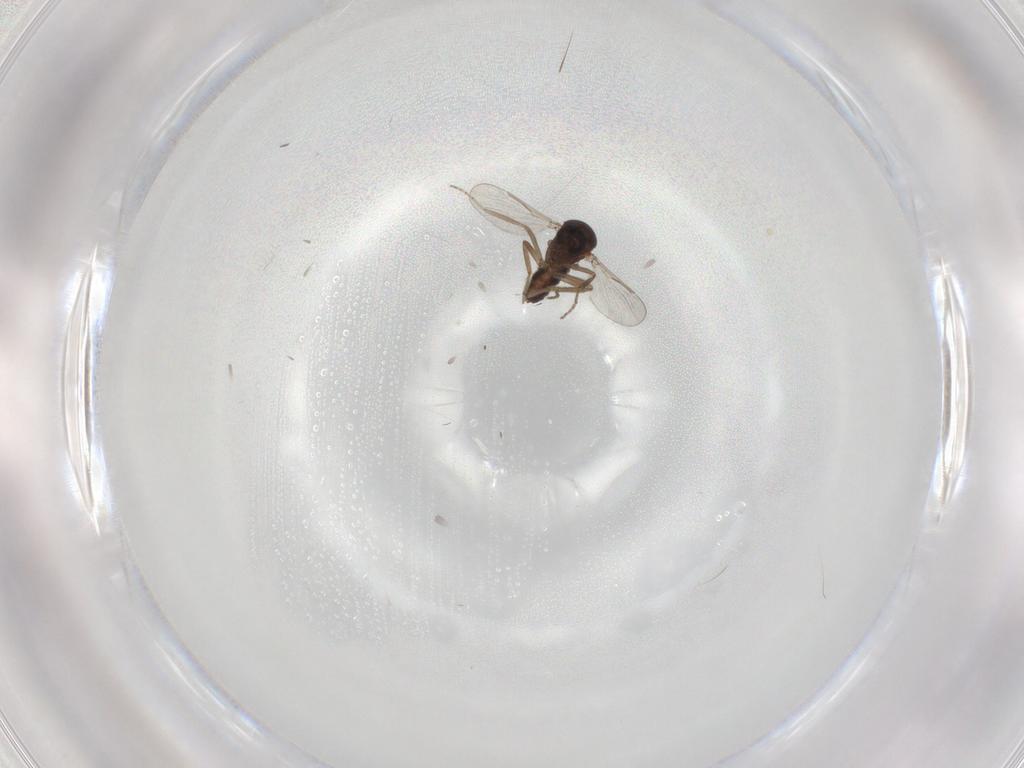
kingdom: Animalia
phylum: Arthropoda
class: Insecta
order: Diptera
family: Ceratopogonidae
